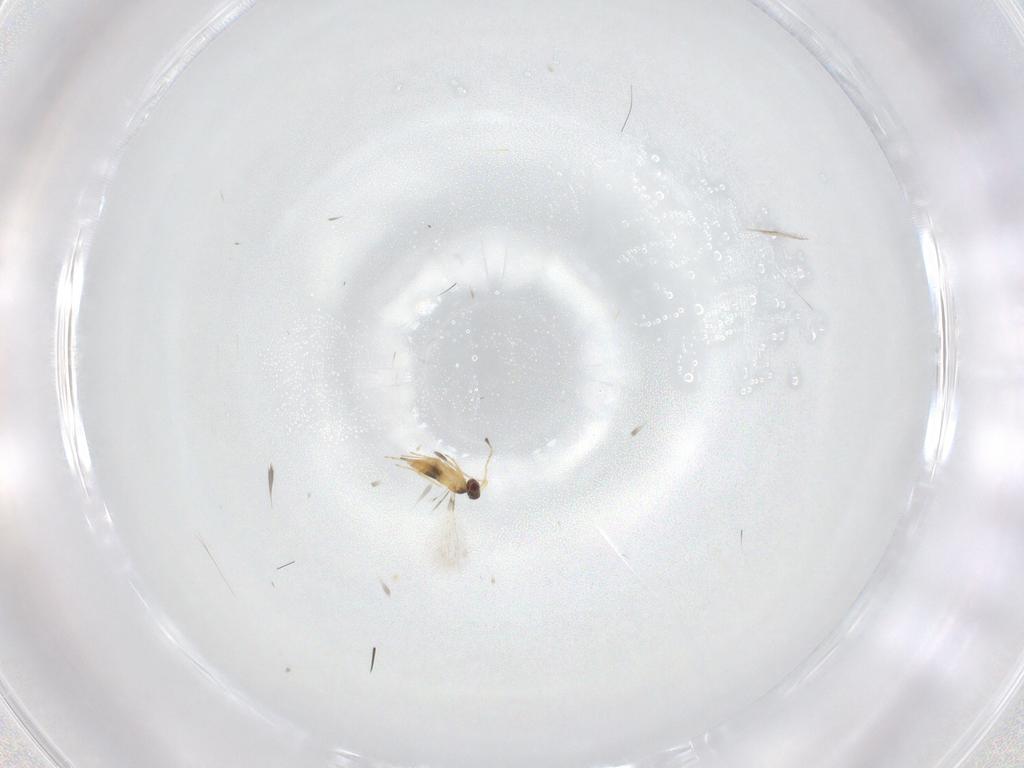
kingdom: Animalia
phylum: Arthropoda
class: Insecta
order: Hymenoptera
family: Mymaridae
